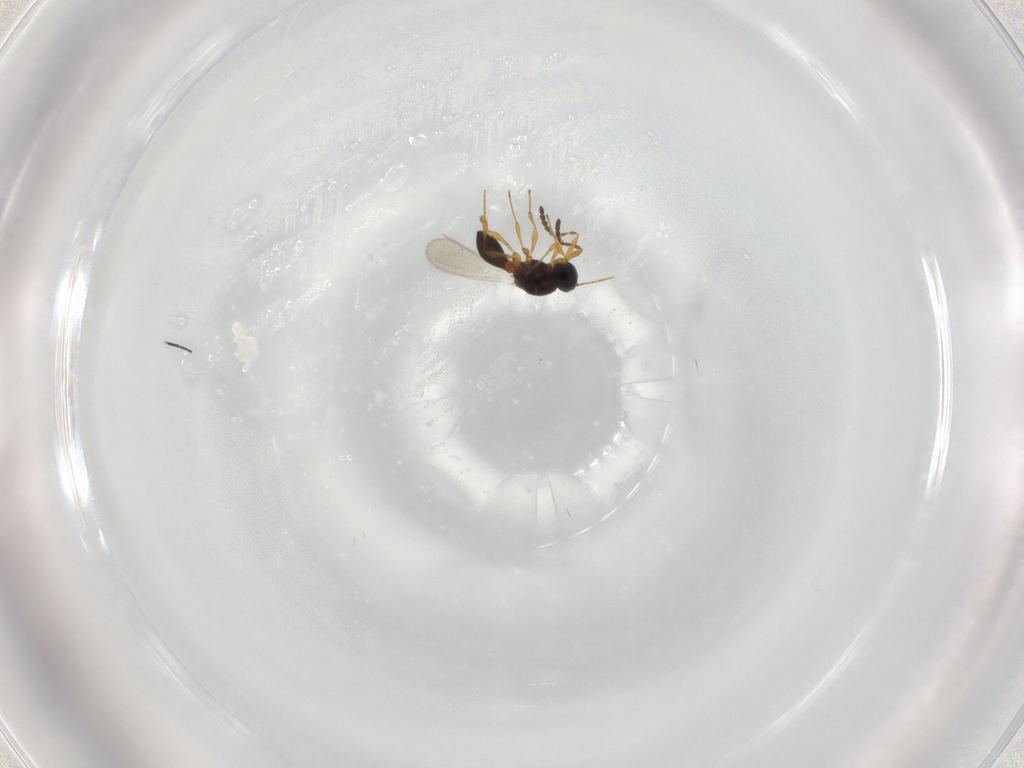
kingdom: Animalia
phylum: Arthropoda
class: Insecta
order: Hymenoptera
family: Platygastridae
